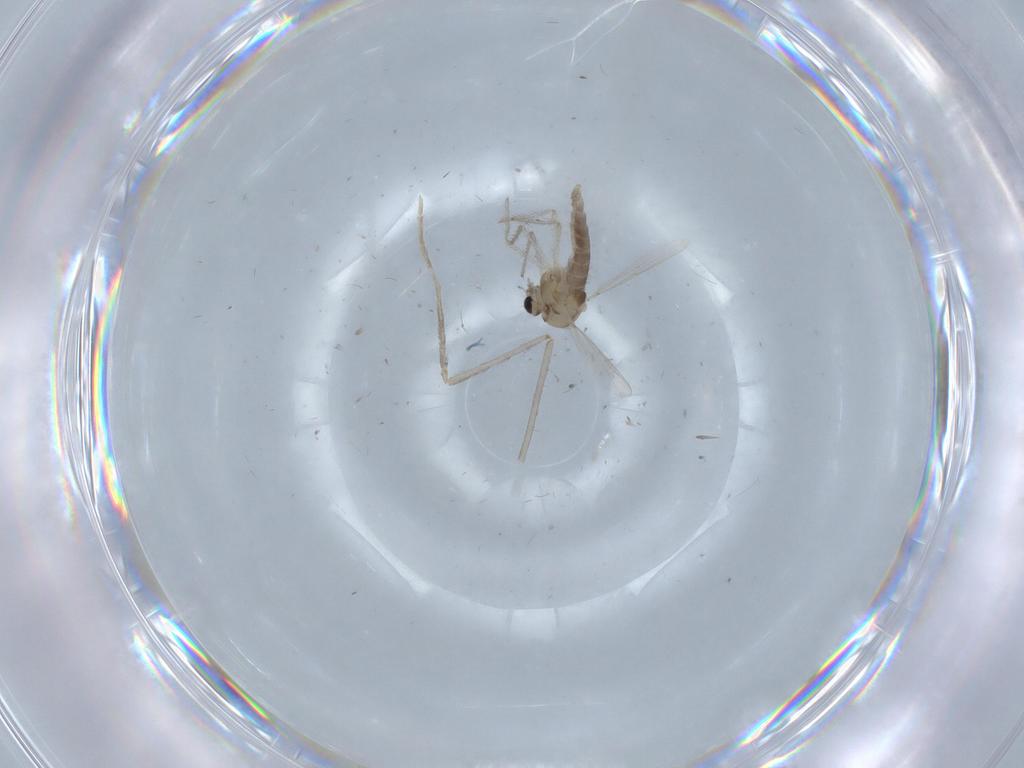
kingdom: Animalia
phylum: Arthropoda
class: Insecta
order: Diptera
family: Chironomidae
